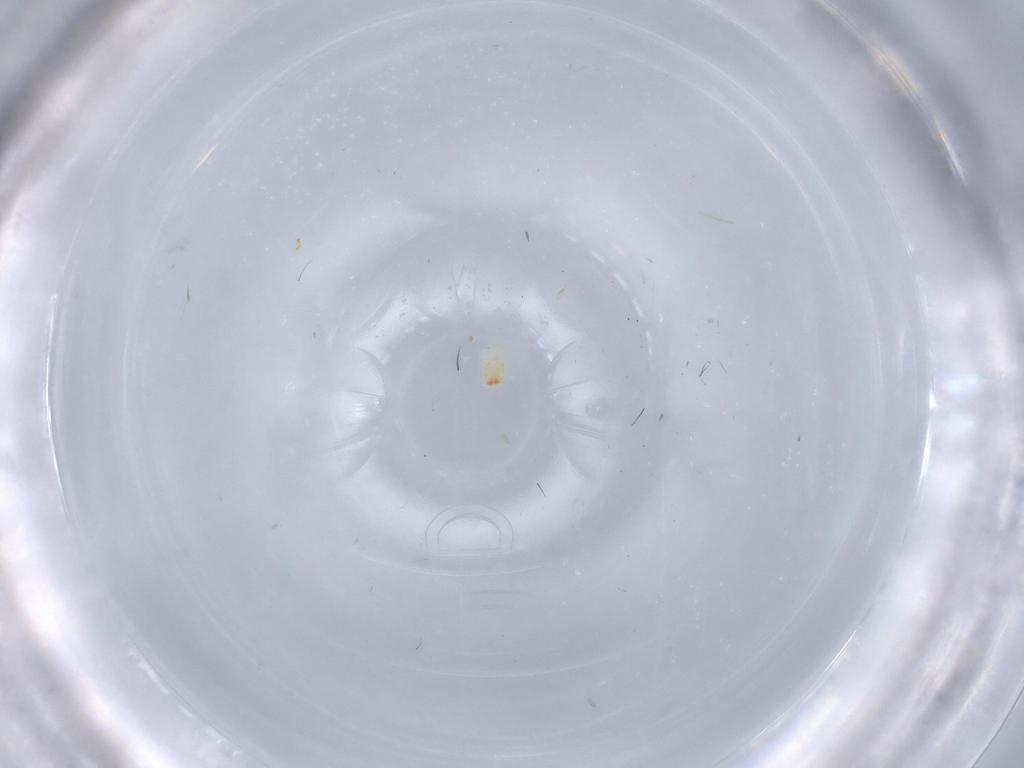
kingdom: Animalia
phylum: Arthropoda
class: Arachnida
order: Trombidiformes
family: Stigmaeidae
